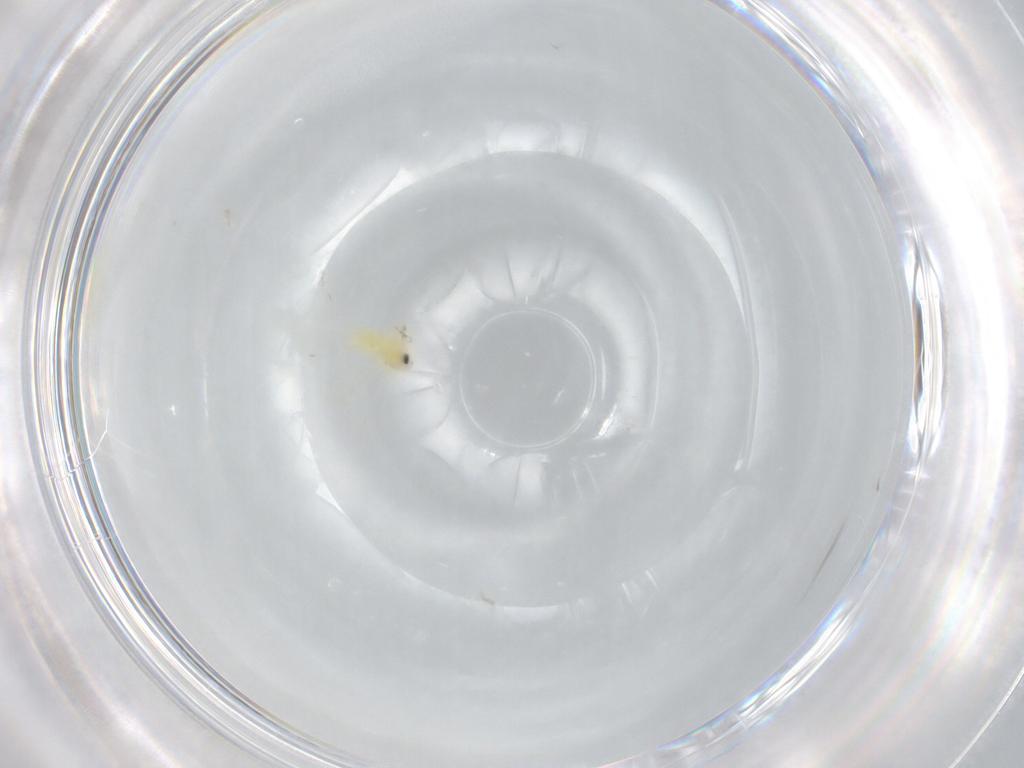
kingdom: Animalia
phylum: Arthropoda
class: Insecta
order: Hemiptera
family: Aleyrodidae
